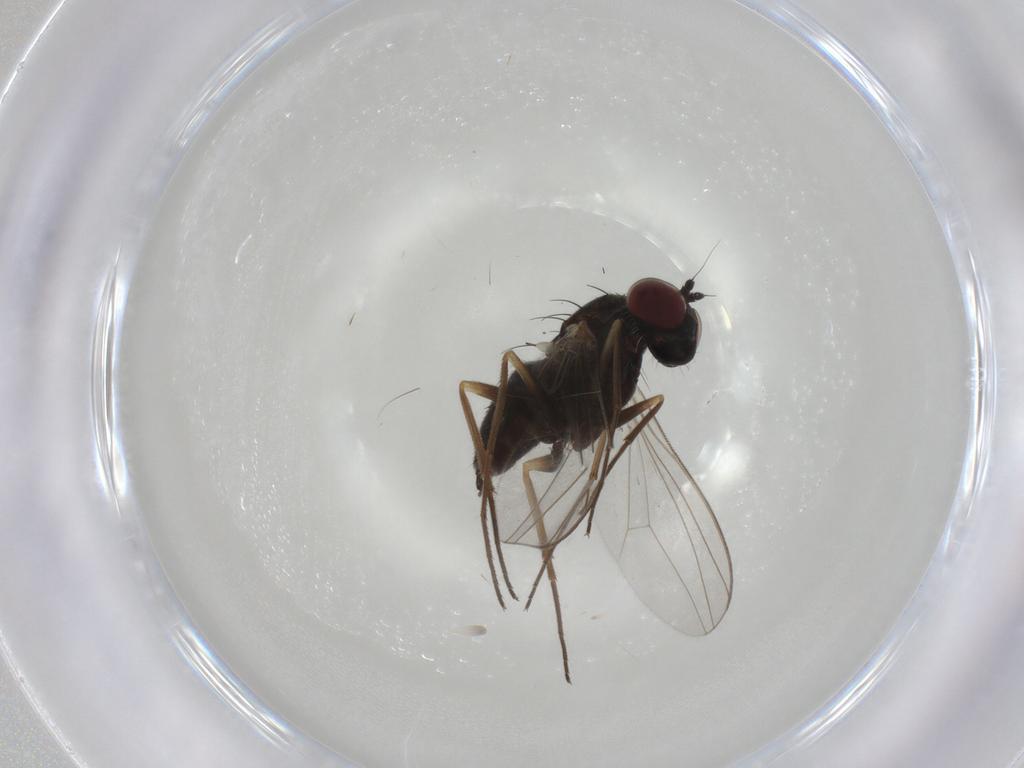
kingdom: Animalia
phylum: Arthropoda
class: Insecta
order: Diptera
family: Dolichopodidae
